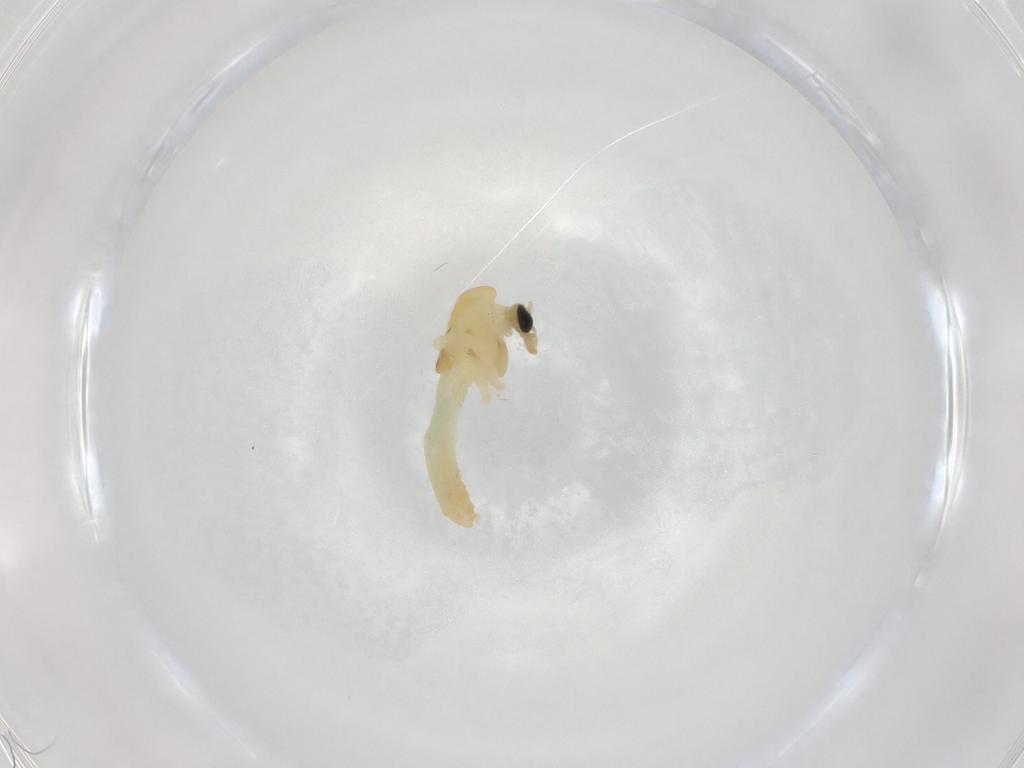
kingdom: Animalia
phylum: Arthropoda
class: Insecta
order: Diptera
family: Chironomidae
